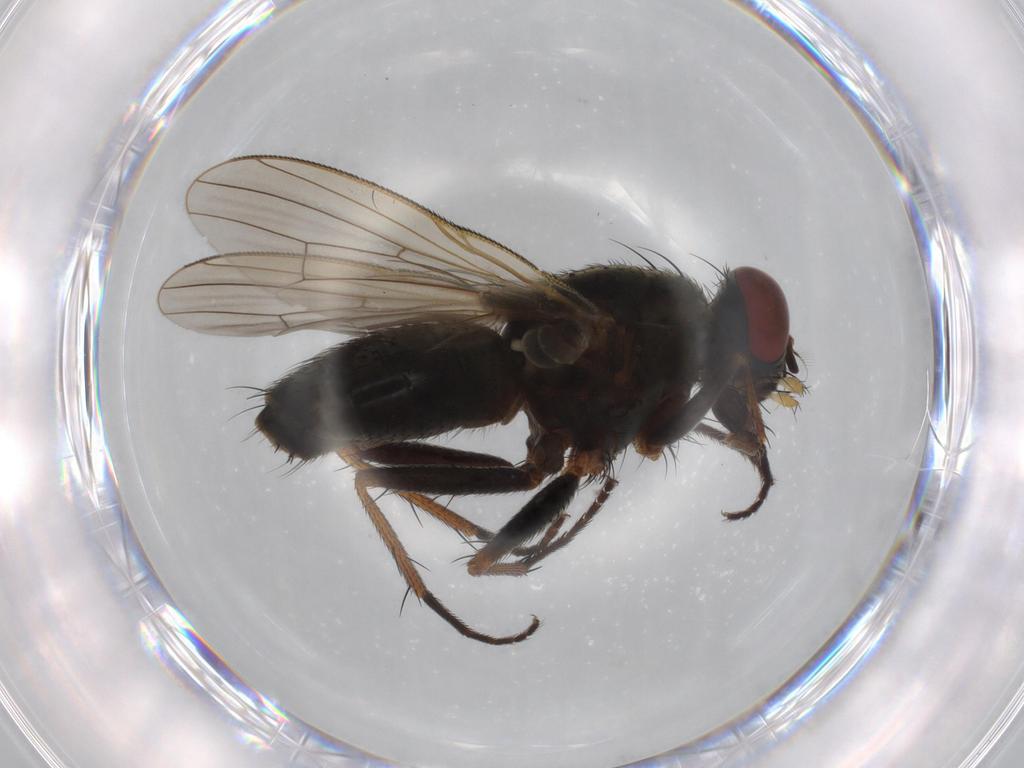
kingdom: Animalia
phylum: Arthropoda
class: Insecta
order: Diptera
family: Muscidae
